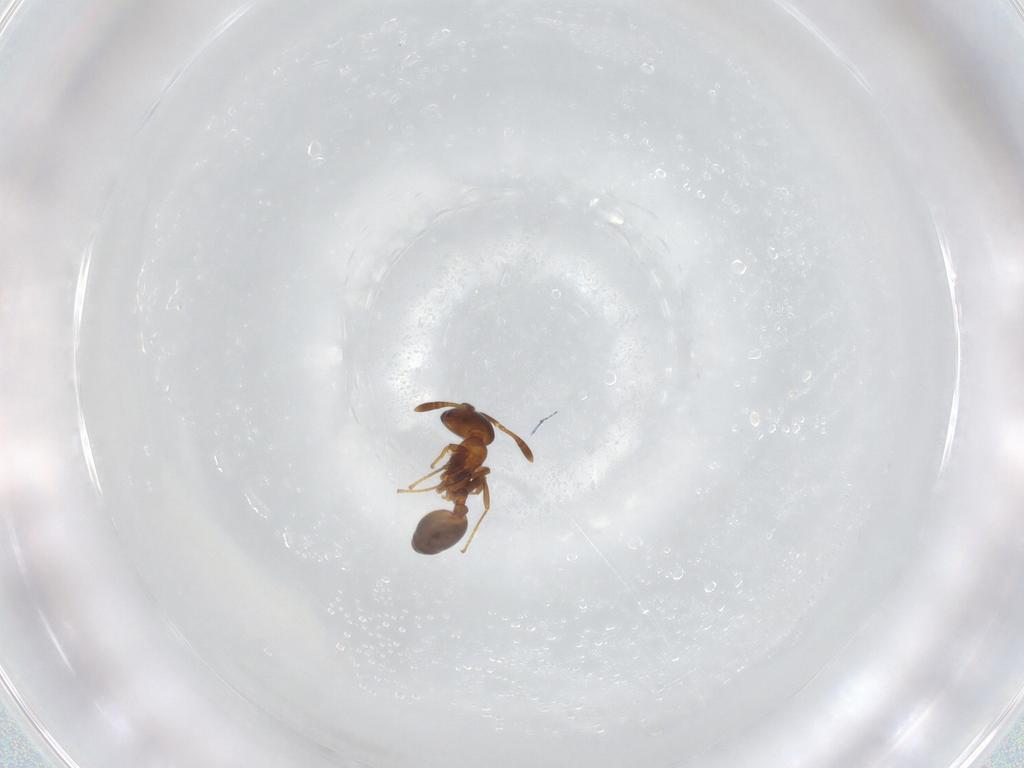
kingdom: Animalia
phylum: Arthropoda
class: Insecta
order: Hymenoptera
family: Formicidae
